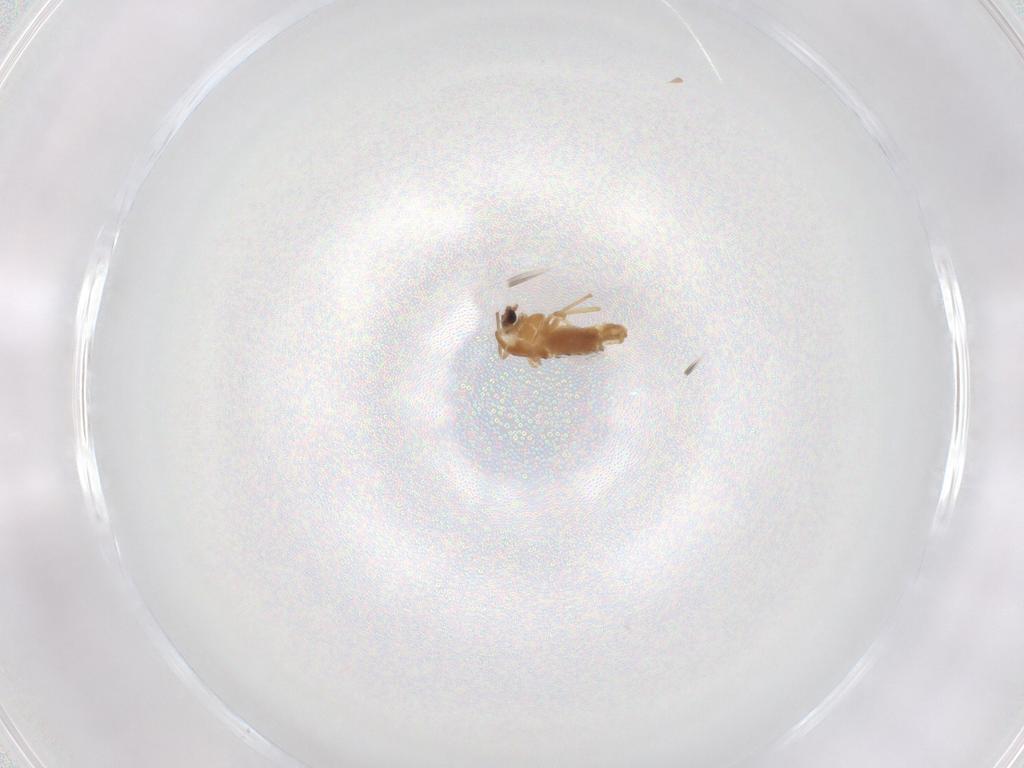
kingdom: Animalia
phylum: Arthropoda
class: Insecta
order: Diptera
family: Chironomidae
